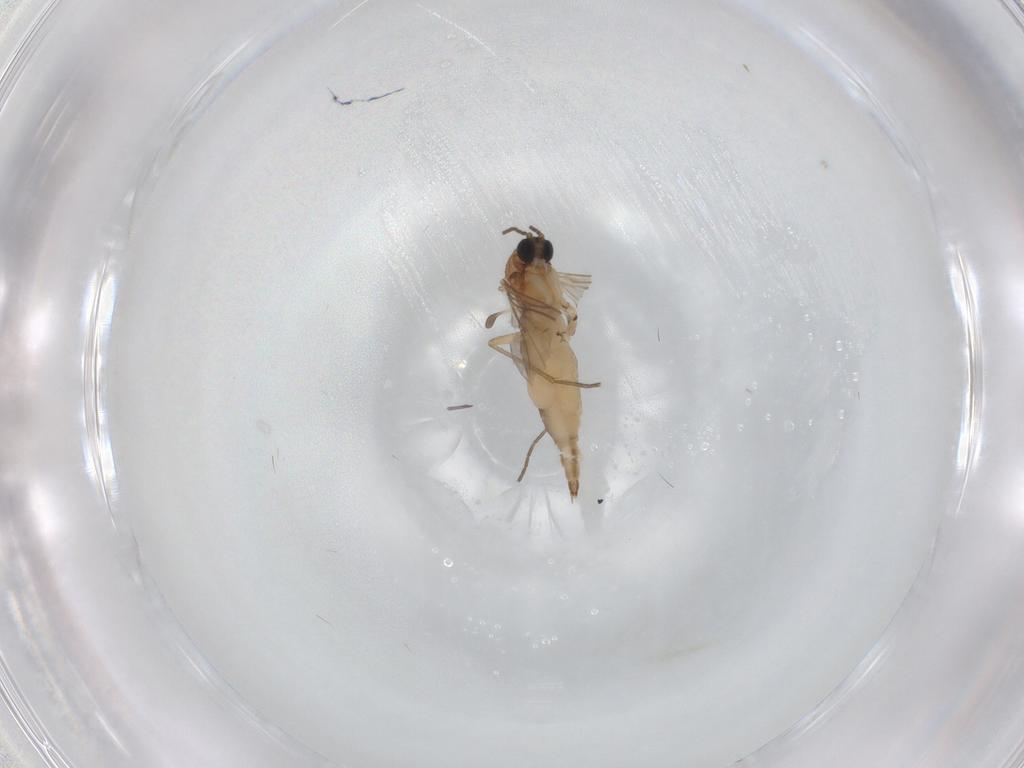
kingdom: Animalia
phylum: Arthropoda
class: Insecta
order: Diptera
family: Sciaridae
